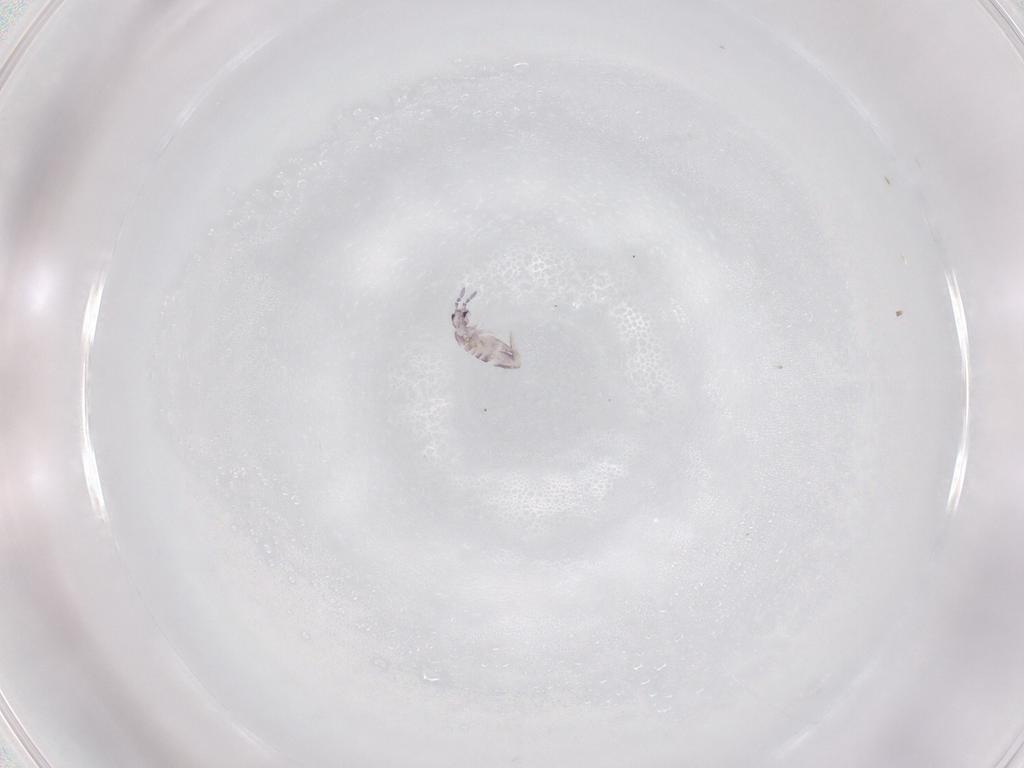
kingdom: Animalia
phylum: Arthropoda
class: Collembola
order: Entomobryomorpha
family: Entomobryidae
